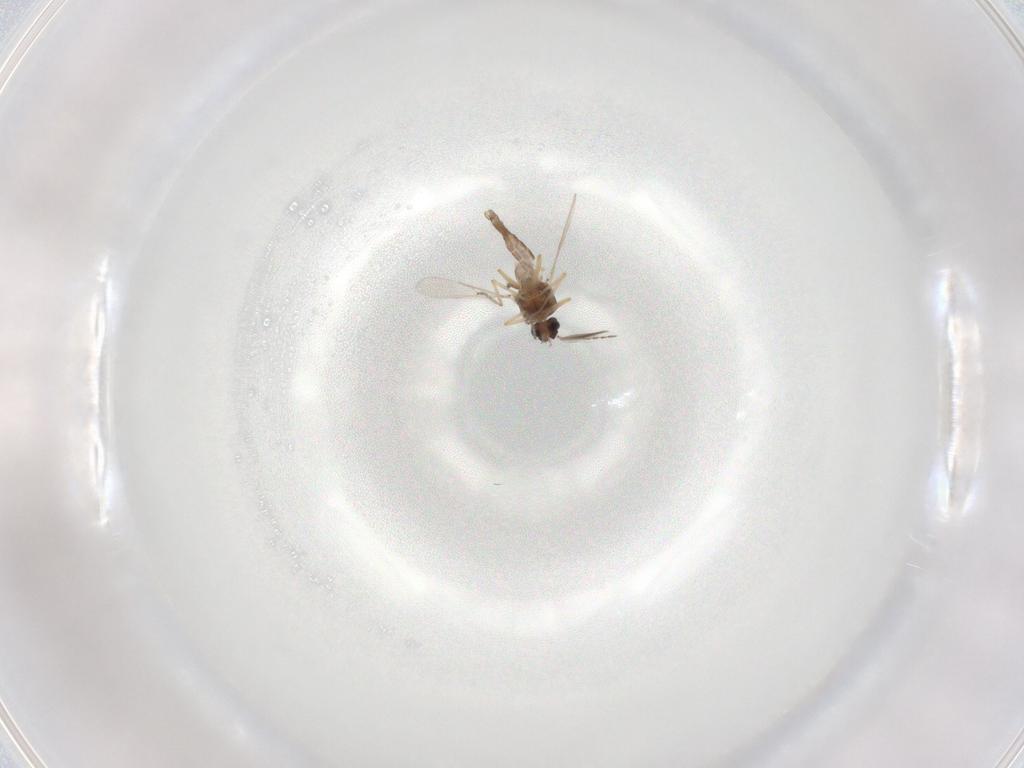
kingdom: Animalia
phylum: Arthropoda
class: Insecta
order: Diptera
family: Ceratopogonidae
